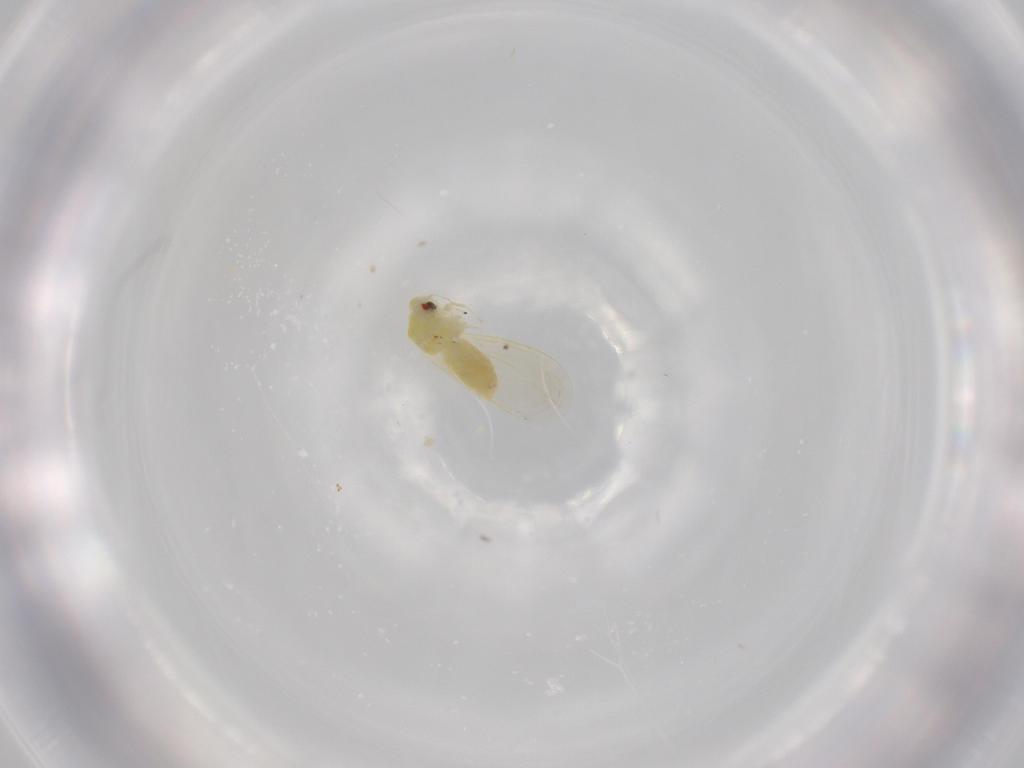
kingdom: Animalia
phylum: Arthropoda
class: Insecta
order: Hemiptera
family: Aleyrodidae
